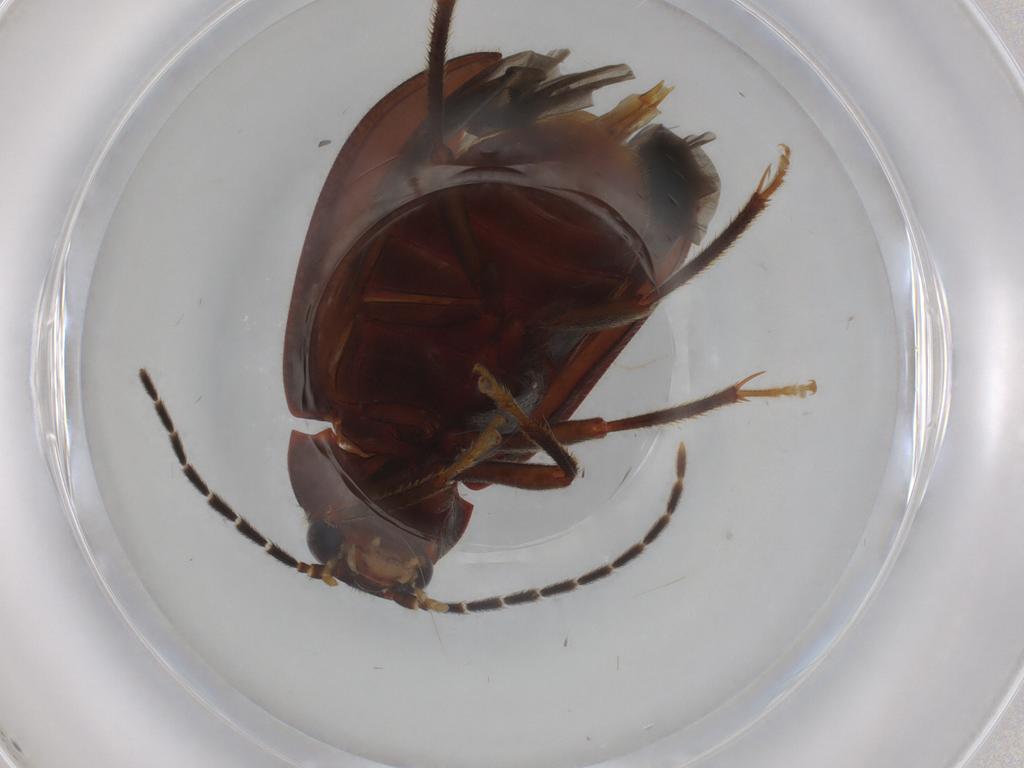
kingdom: Animalia
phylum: Arthropoda
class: Insecta
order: Coleoptera
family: Ptilodactylidae
